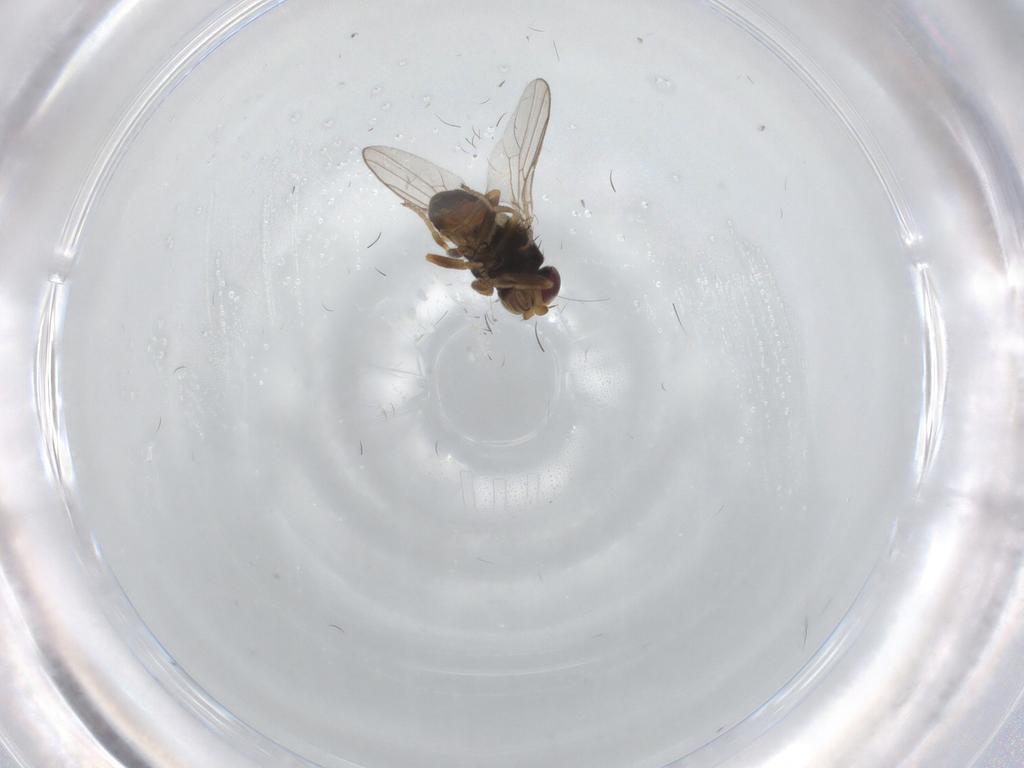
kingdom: Animalia
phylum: Arthropoda
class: Insecta
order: Diptera
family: Chloropidae
